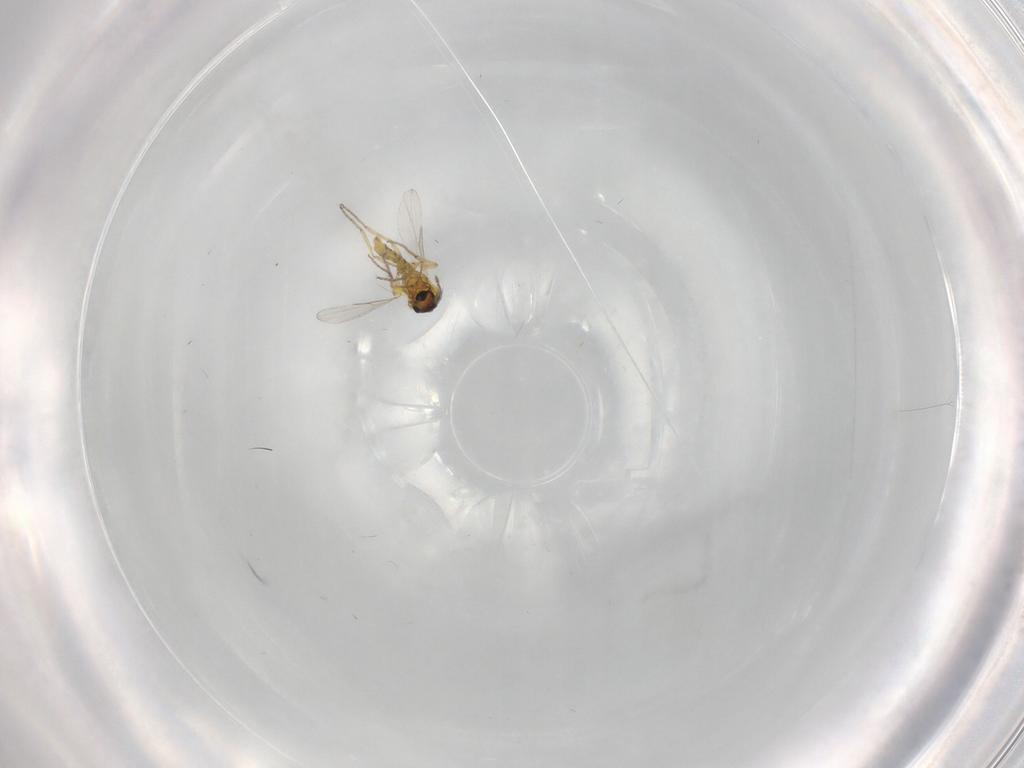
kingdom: Animalia
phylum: Arthropoda
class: Insecta
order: Diptera
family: Ceratopogonidae
